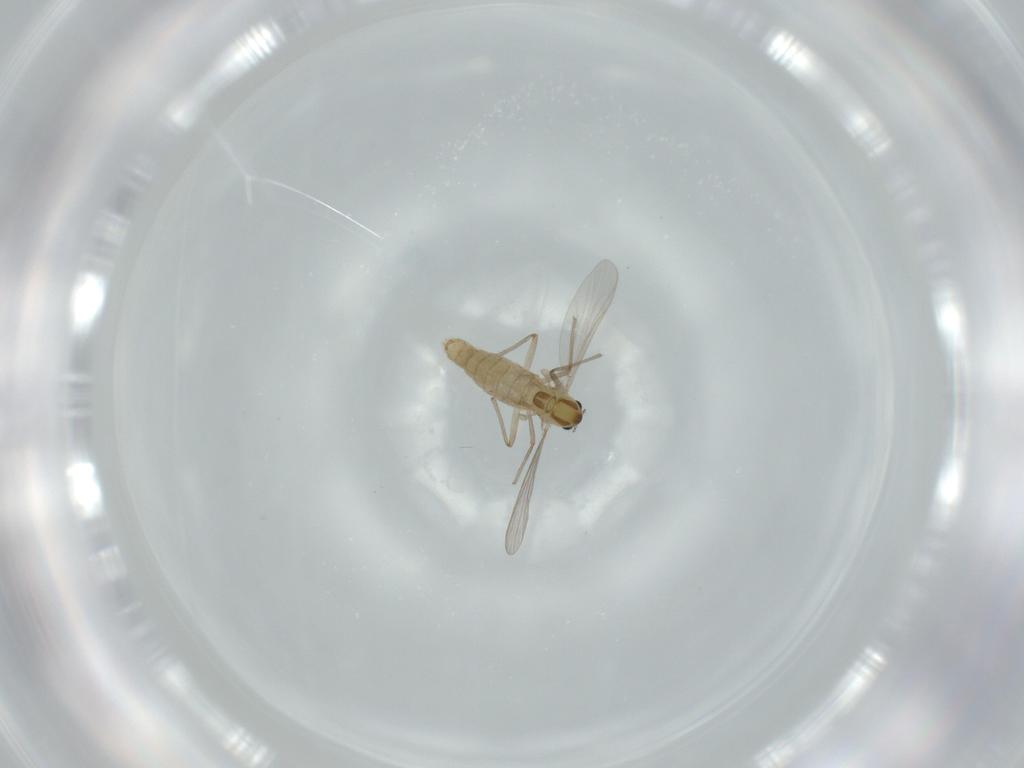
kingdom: Animalia
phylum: Arthropoda
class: Insecta
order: Diptera
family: Chironomidae
